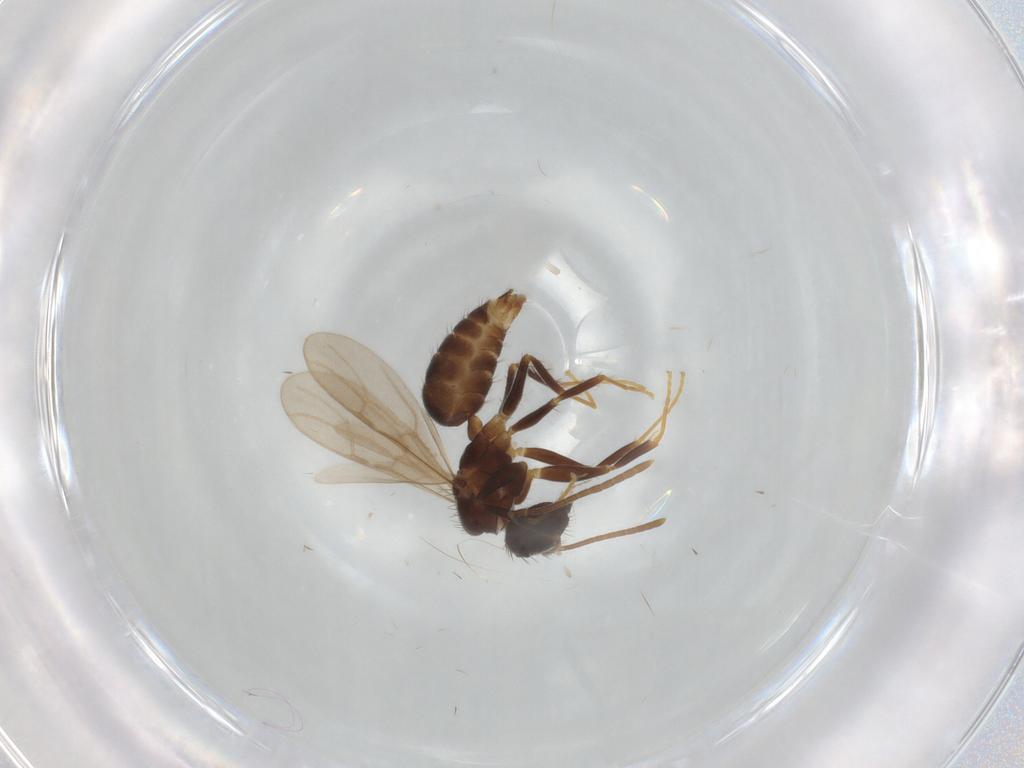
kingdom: Animalia
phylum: Arthropoda
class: Insecta
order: Hymenoptera
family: Formicidae
